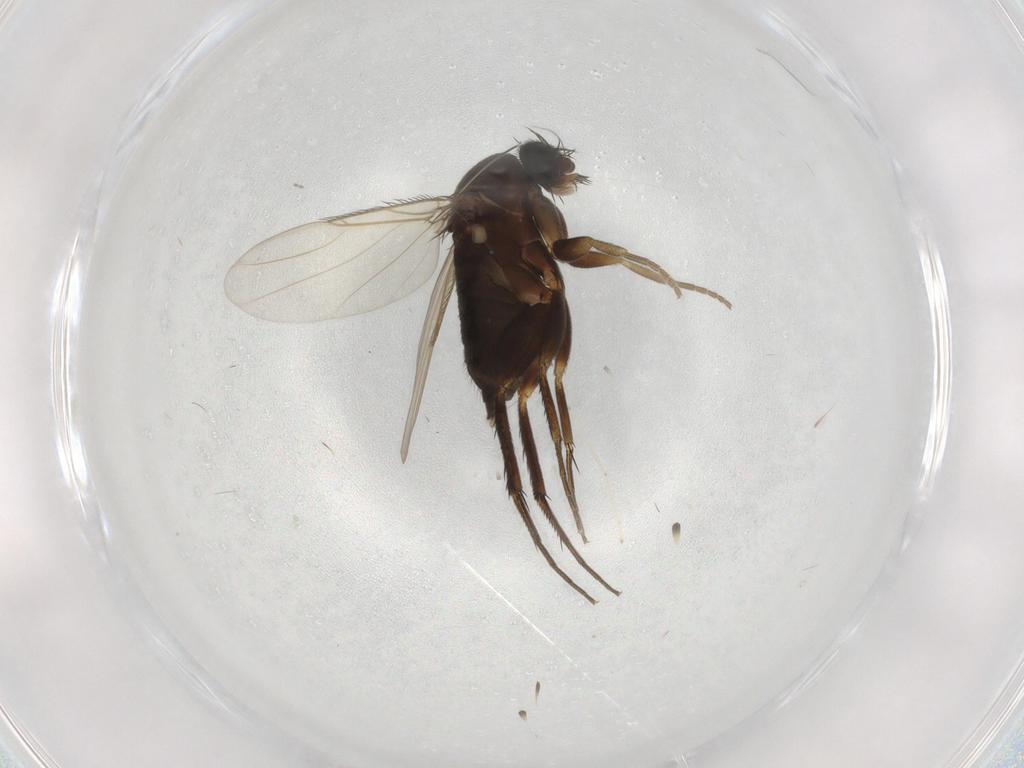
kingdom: Animalia
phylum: Arthropoda
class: Insecta
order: Diptera
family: Phoridae
